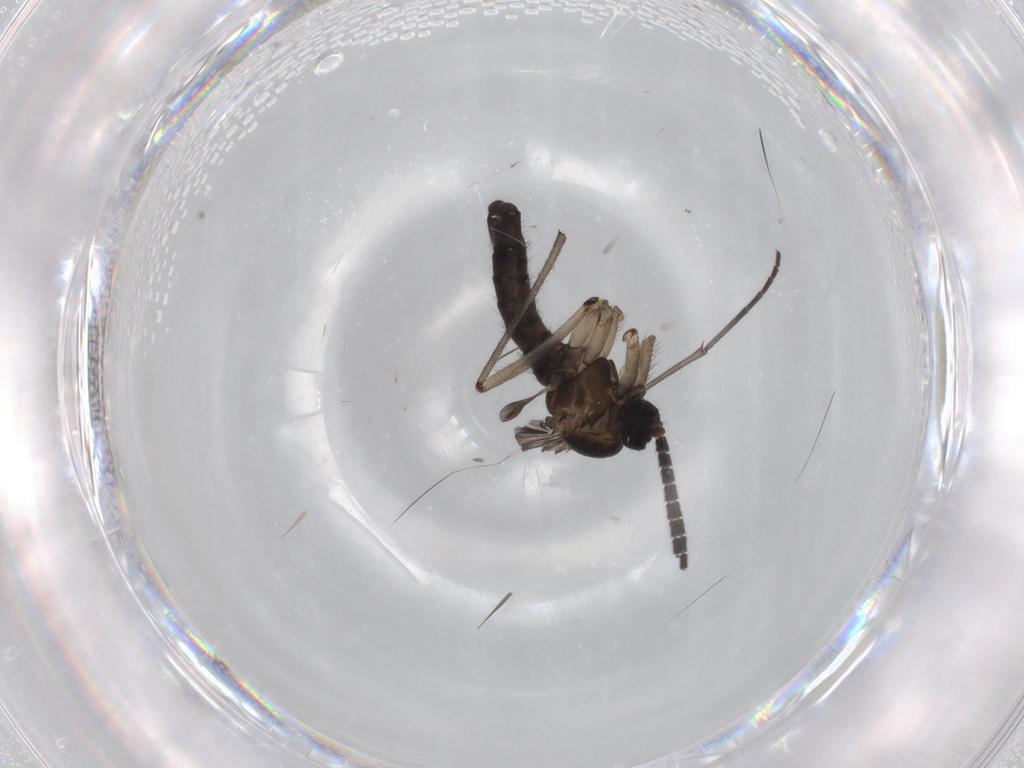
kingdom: Animalia
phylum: Arthropoda
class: Insecta
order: Diptera
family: Sciaridae
